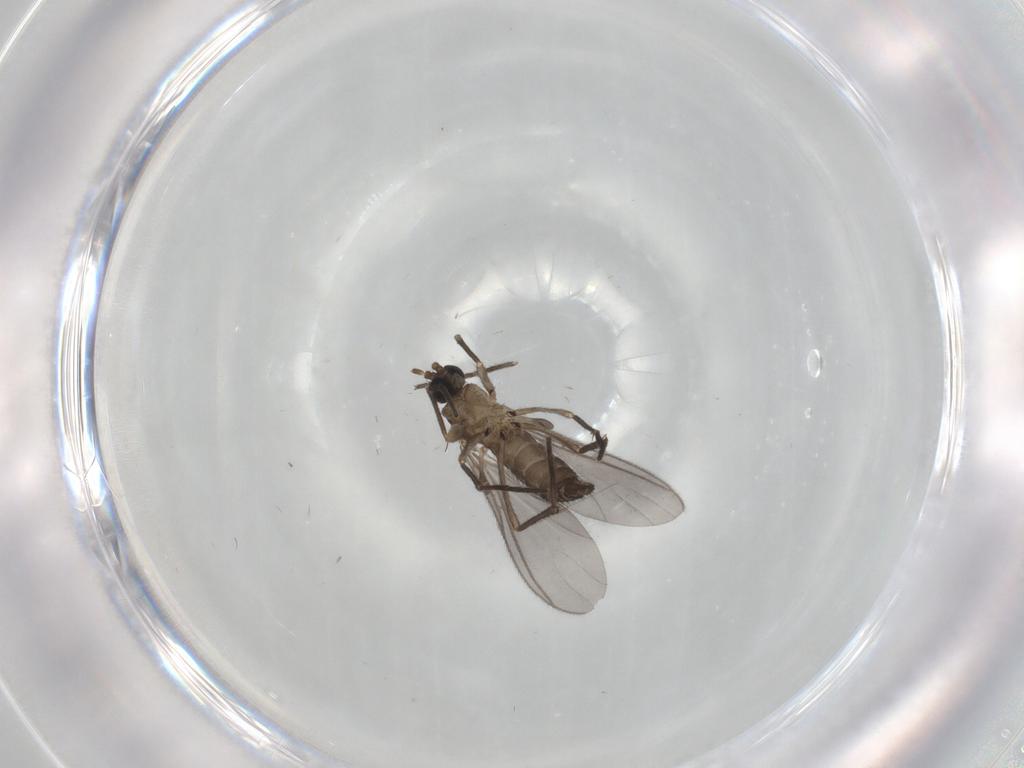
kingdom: Animalia
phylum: Arthropoda
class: Insecta
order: Diptera
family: Sciaridae
